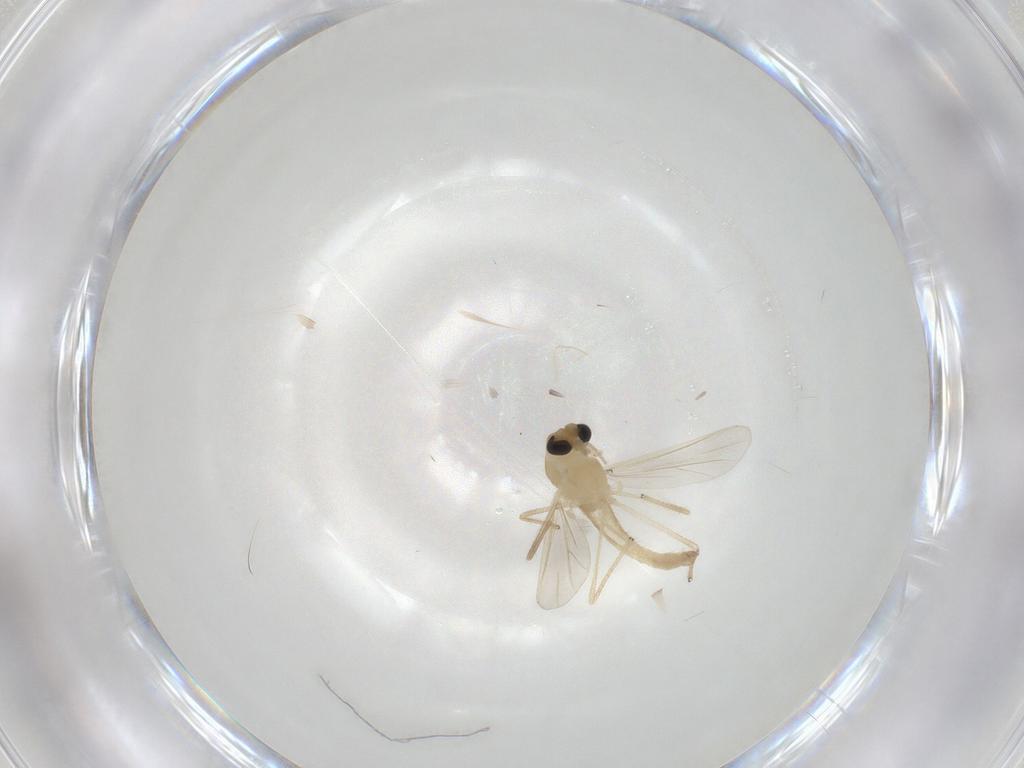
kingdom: Animalia
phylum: Arthropoda
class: Insecta
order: Diptera
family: Chironomidae
